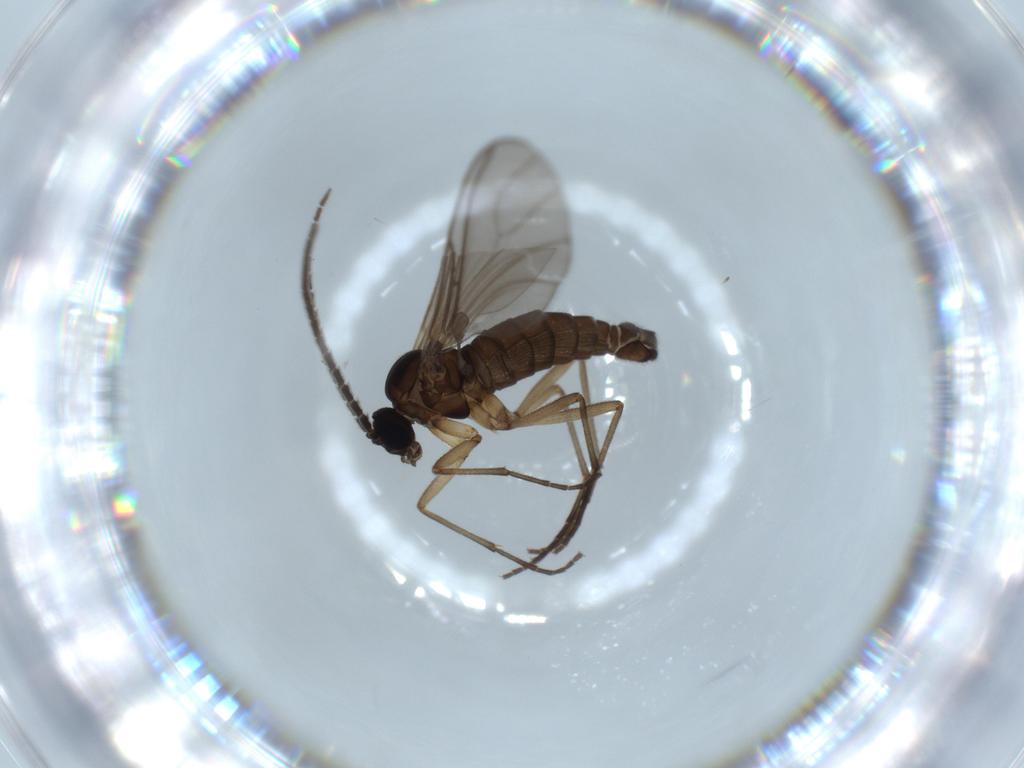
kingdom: Animalia
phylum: Arthropoda
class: Insecta
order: Diptera
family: Sciaridae
